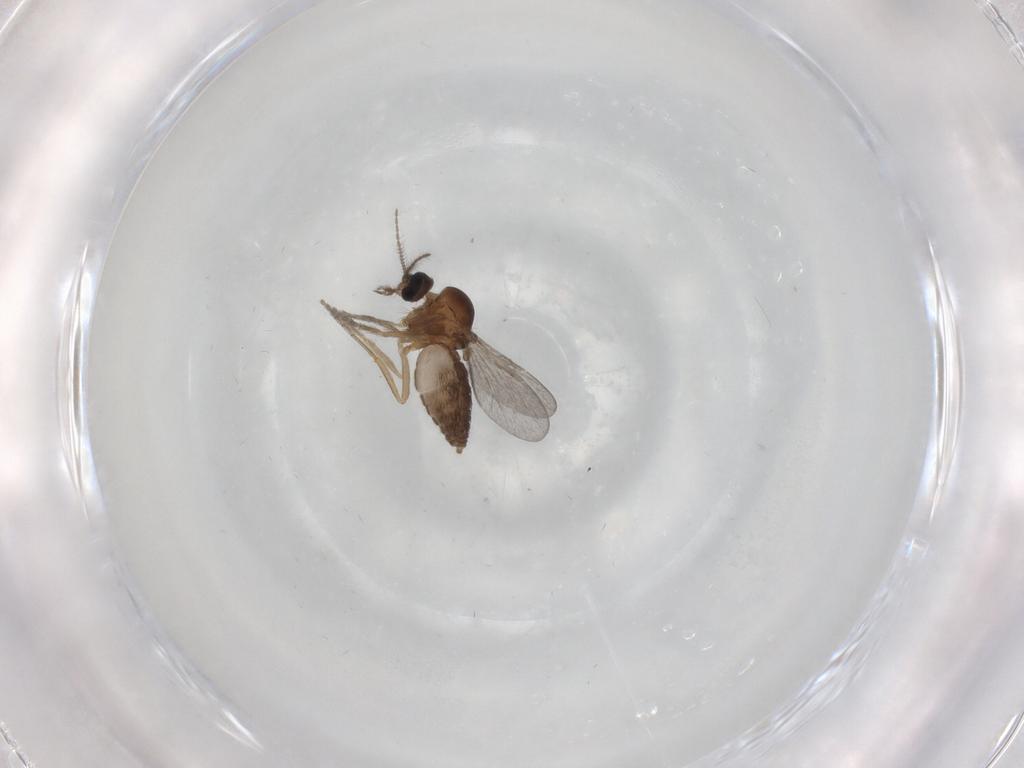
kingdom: Animalia
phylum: Arthropoda
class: Insecta
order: Diptera
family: Ceratopogonidae
